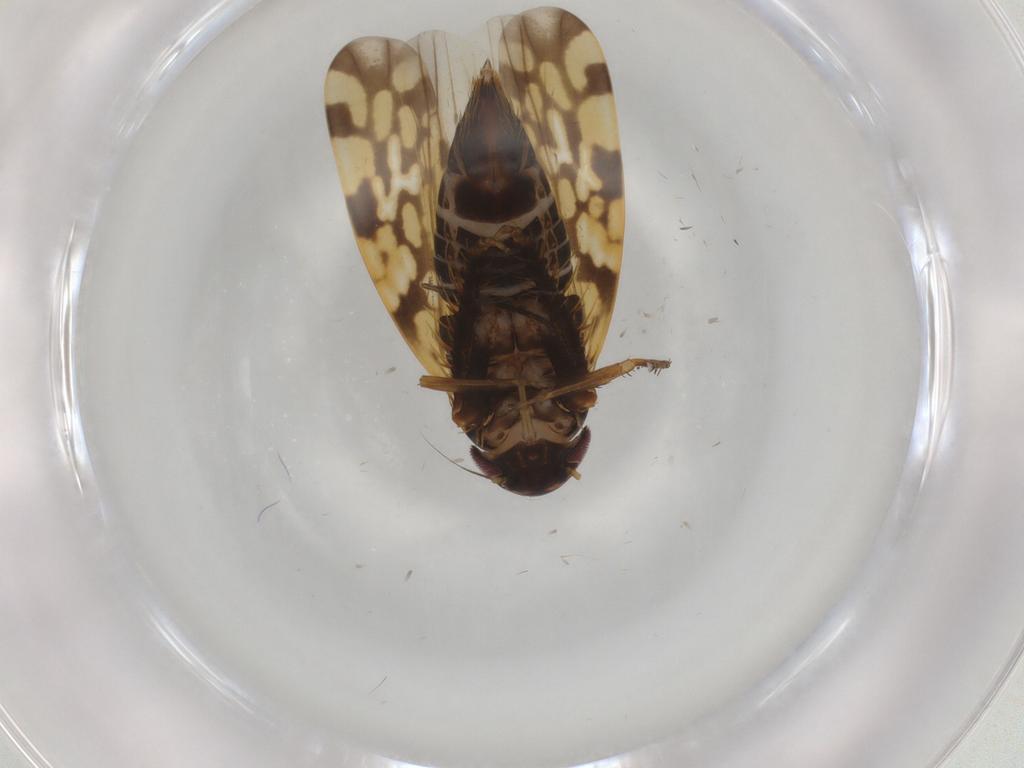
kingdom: Animalia
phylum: Arthropoda
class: Insecta
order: Hemiptera
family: Cicadellidae
